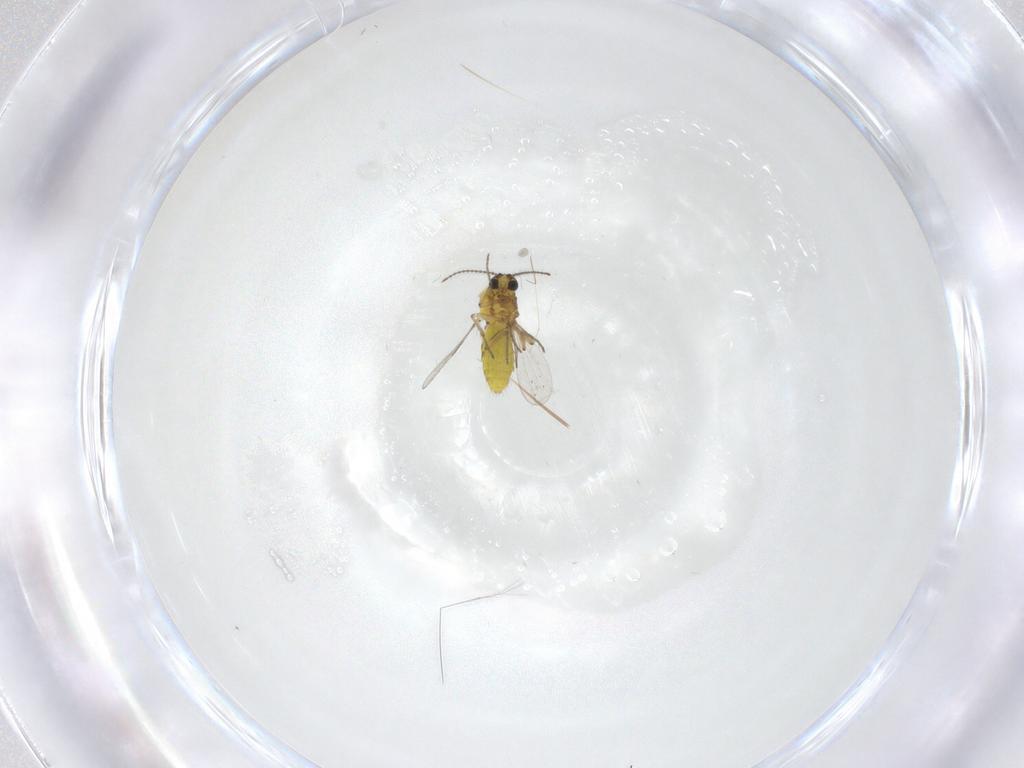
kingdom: Animalia
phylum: Arthropoda
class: Insecta
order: Diptera
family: Ceratopogonidae
